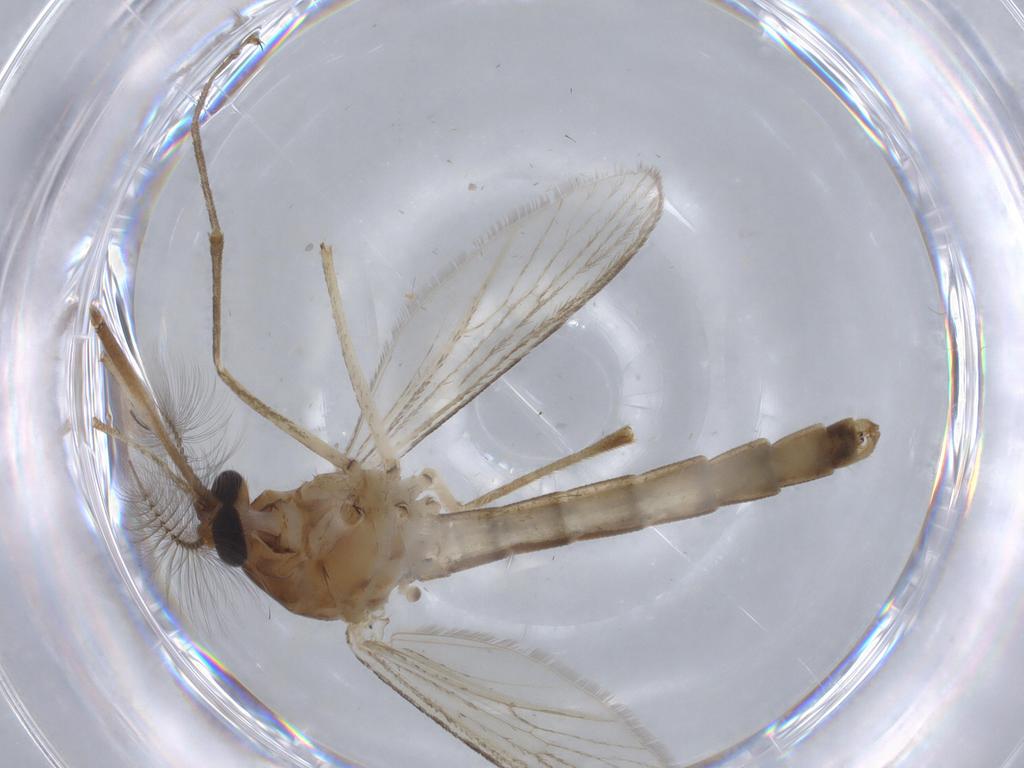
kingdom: Animalia
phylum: Arthropoda
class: Insecta
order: Diptera
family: Culicidae
